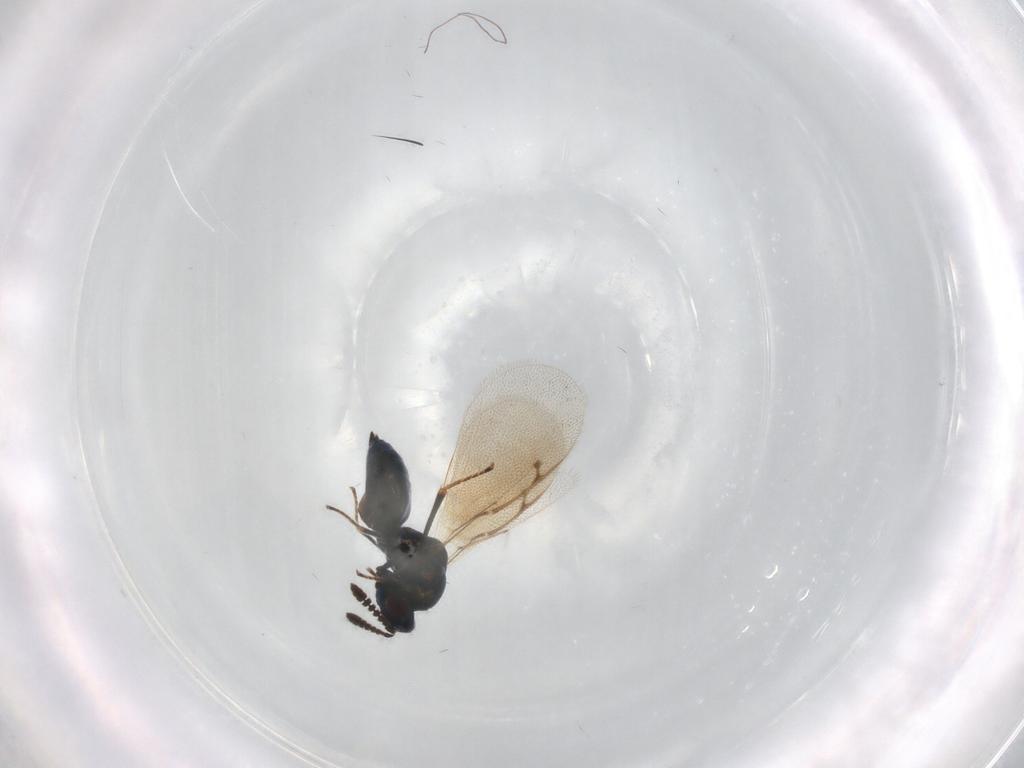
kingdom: Animalia
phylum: Arthropoda
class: Insecta
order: Hymenoptera
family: Pteromalidae
